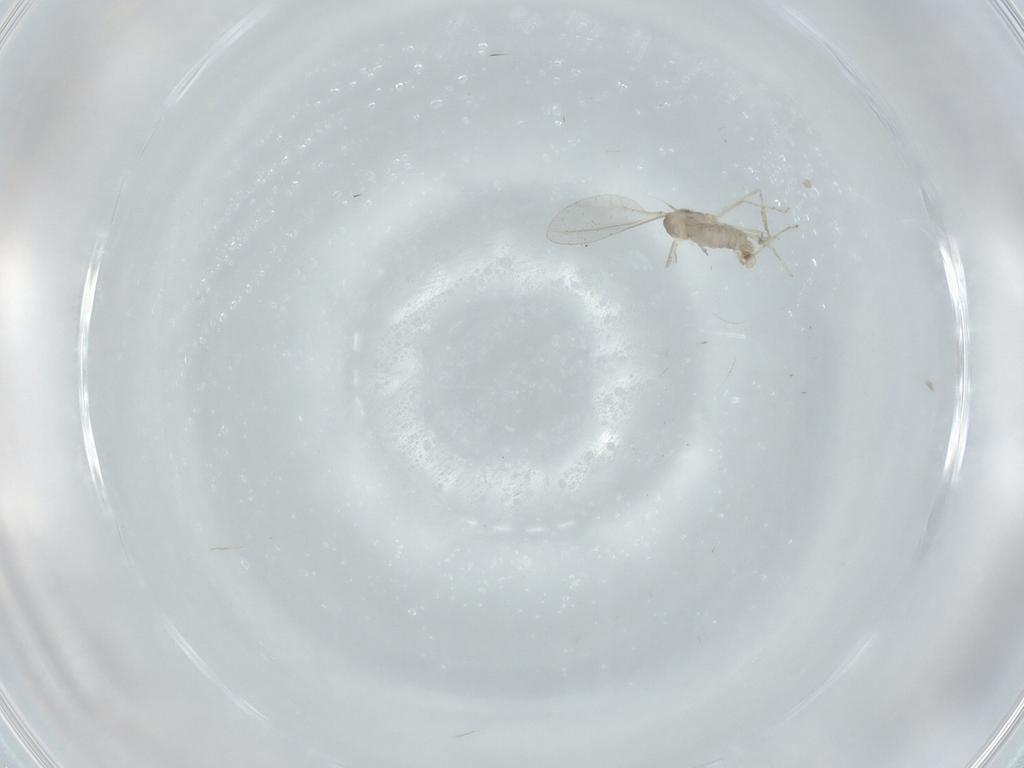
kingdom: Animalia
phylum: Arthropoda
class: Insecta
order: Diptera
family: Cecidomyiidae
